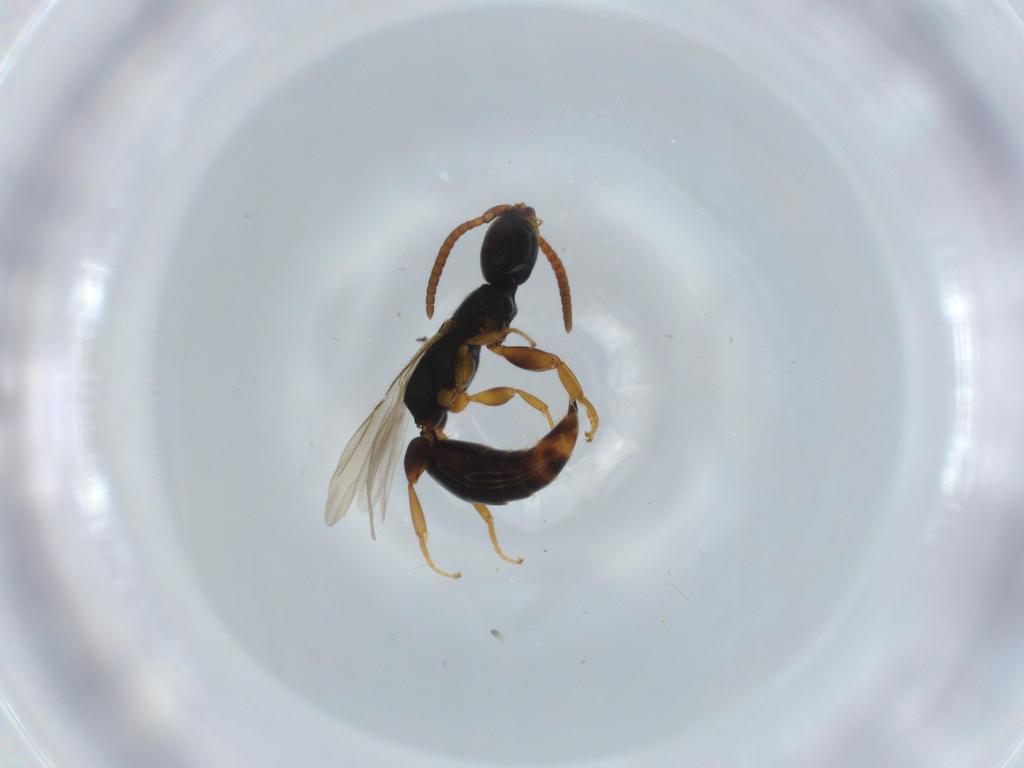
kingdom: Animalia
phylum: Arthropoda
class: Insecta
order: Hymenoptera
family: Bethylidae
